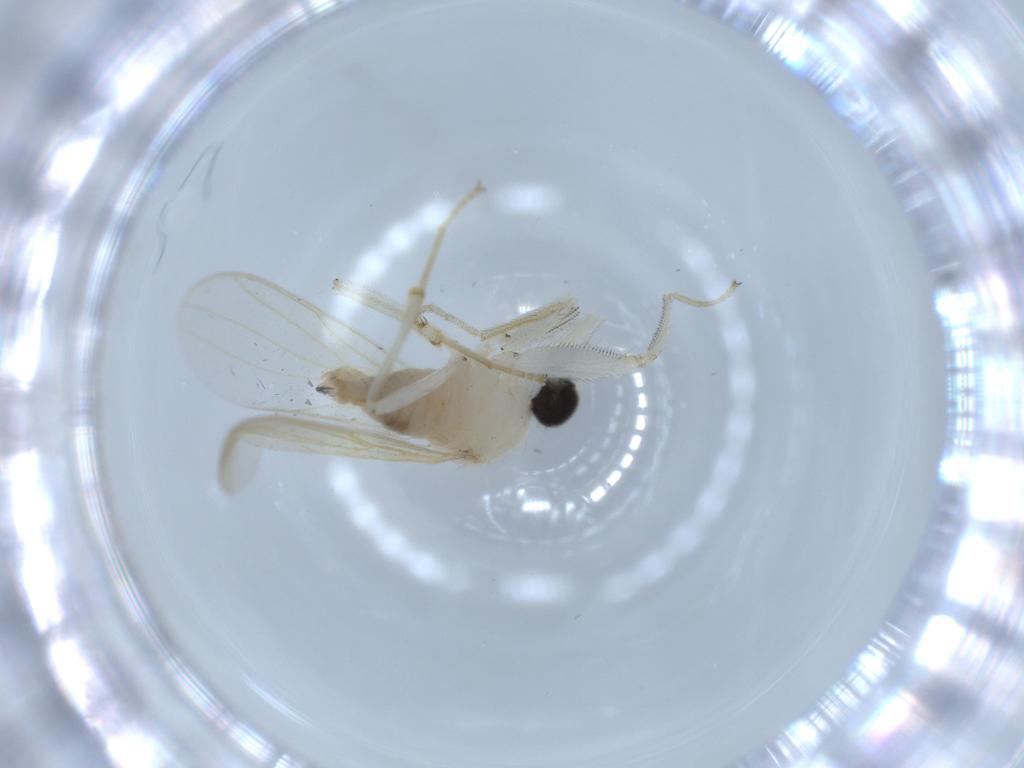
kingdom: Animalia
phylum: Arthropoda
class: Insecta
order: Diptera
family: Hybotidae
